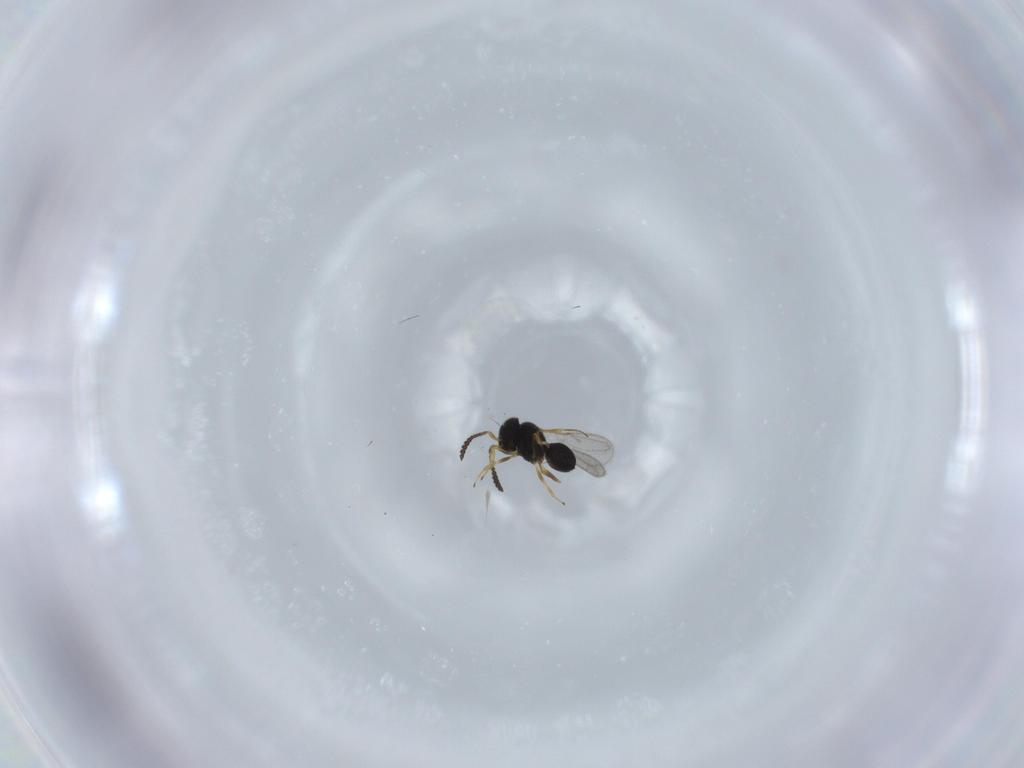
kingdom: Animalia
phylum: Arthropoda
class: Insecta
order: Hymenoptera
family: Scelionidae
